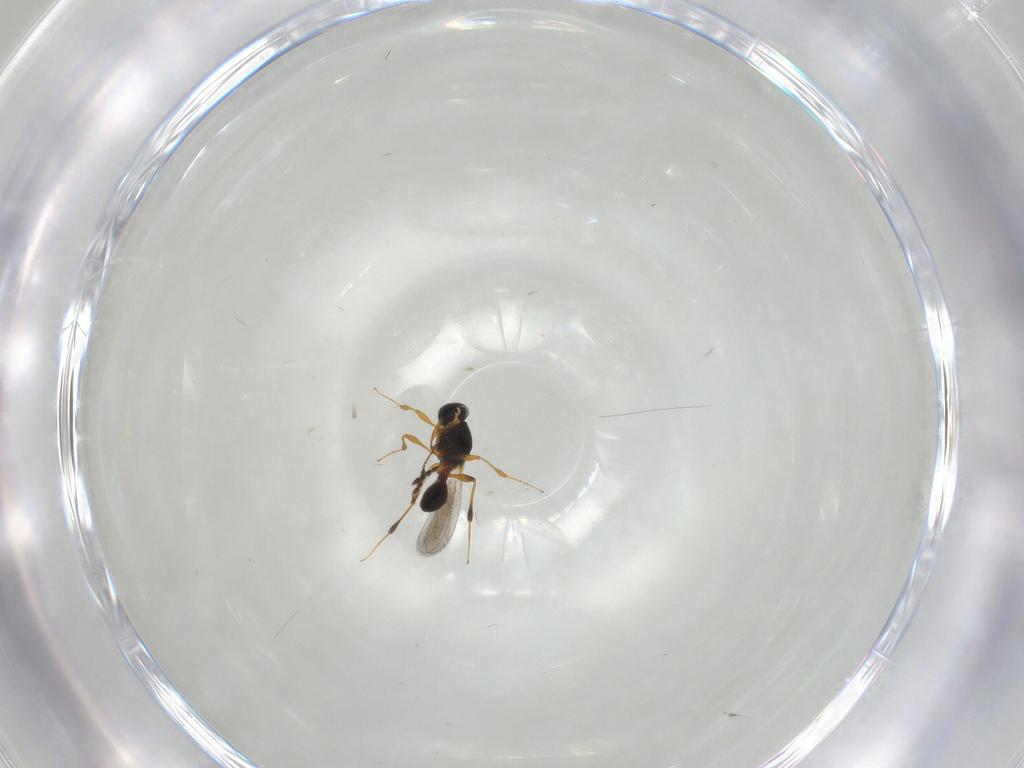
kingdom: Animalia
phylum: Arthropoda
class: Insecta
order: Hymenoptera
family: Platygastridae
